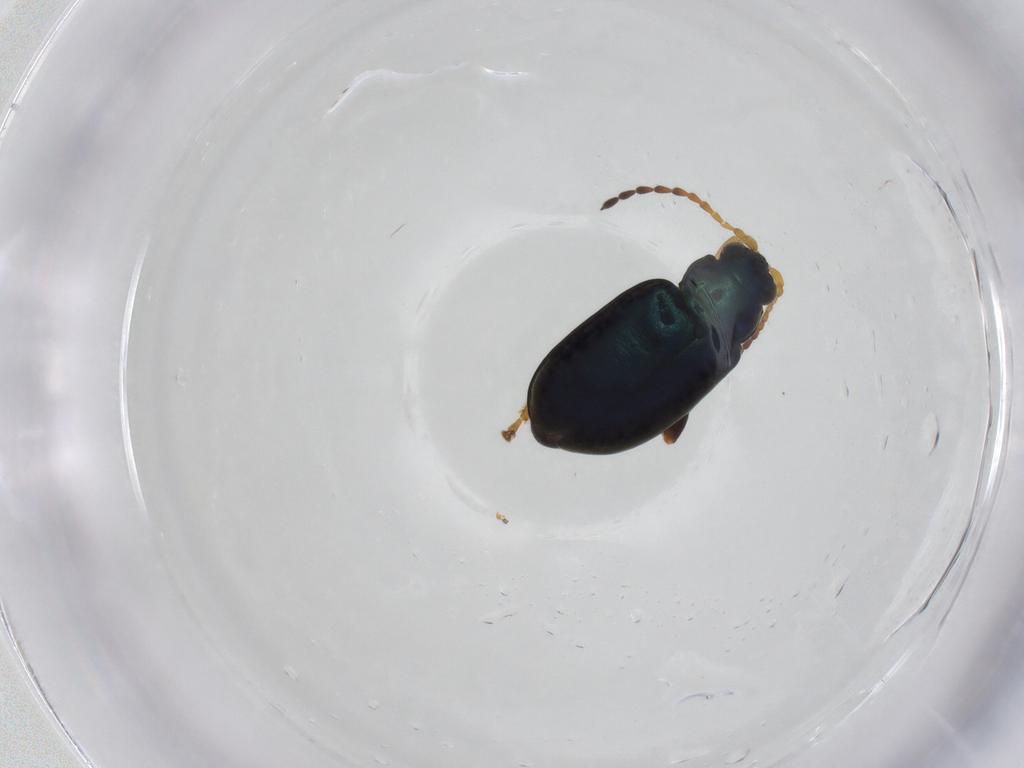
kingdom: Animalia
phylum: Arthropoda
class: Insecta
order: Coleoptera
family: Chrysomelidae
